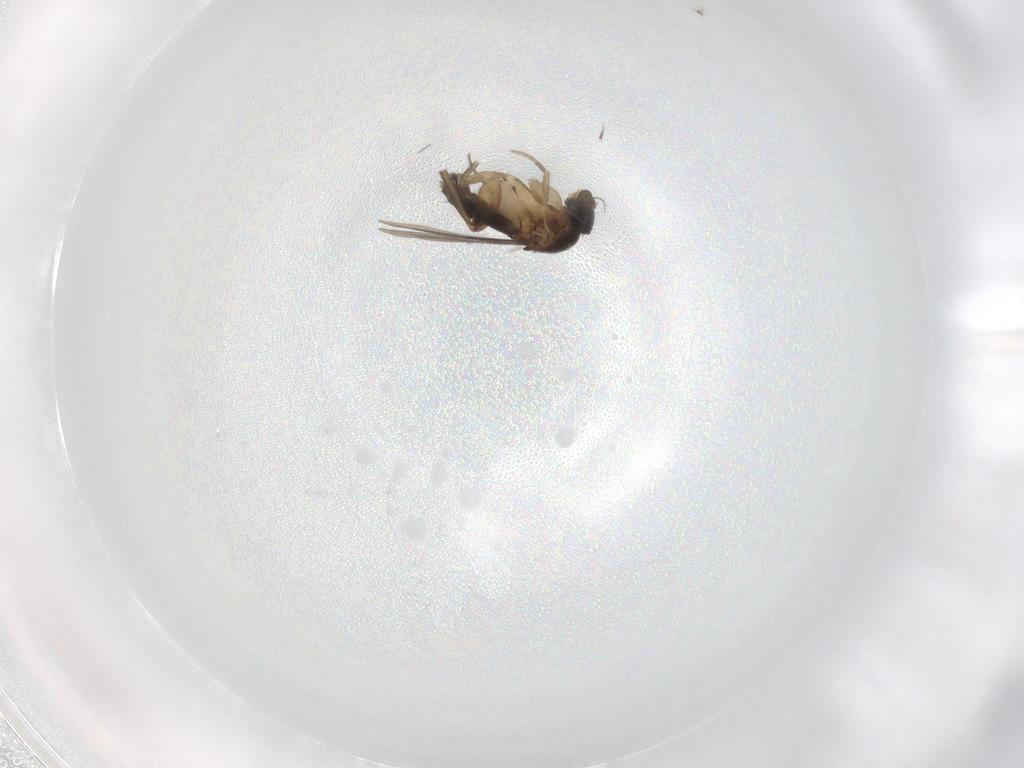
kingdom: Animalia
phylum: Arthropoda
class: Insecta
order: Diptera
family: Phoridae
